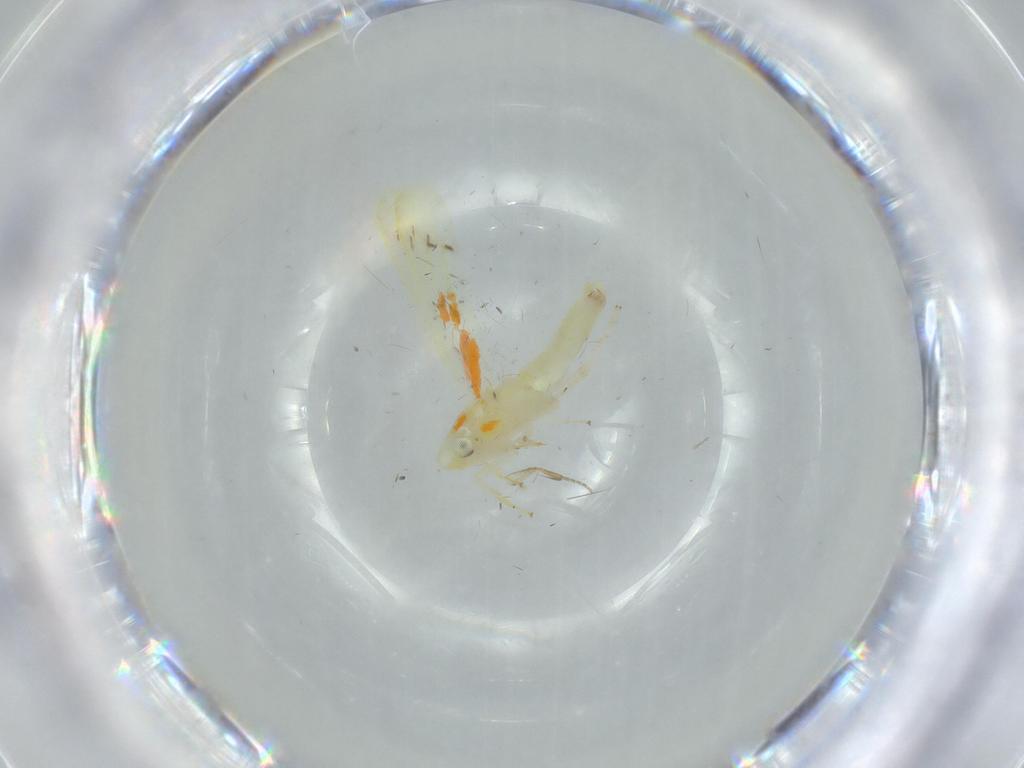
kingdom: Animalia
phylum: Arthropoda
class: Insecta
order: Hemiptera
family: Cicadellidae
